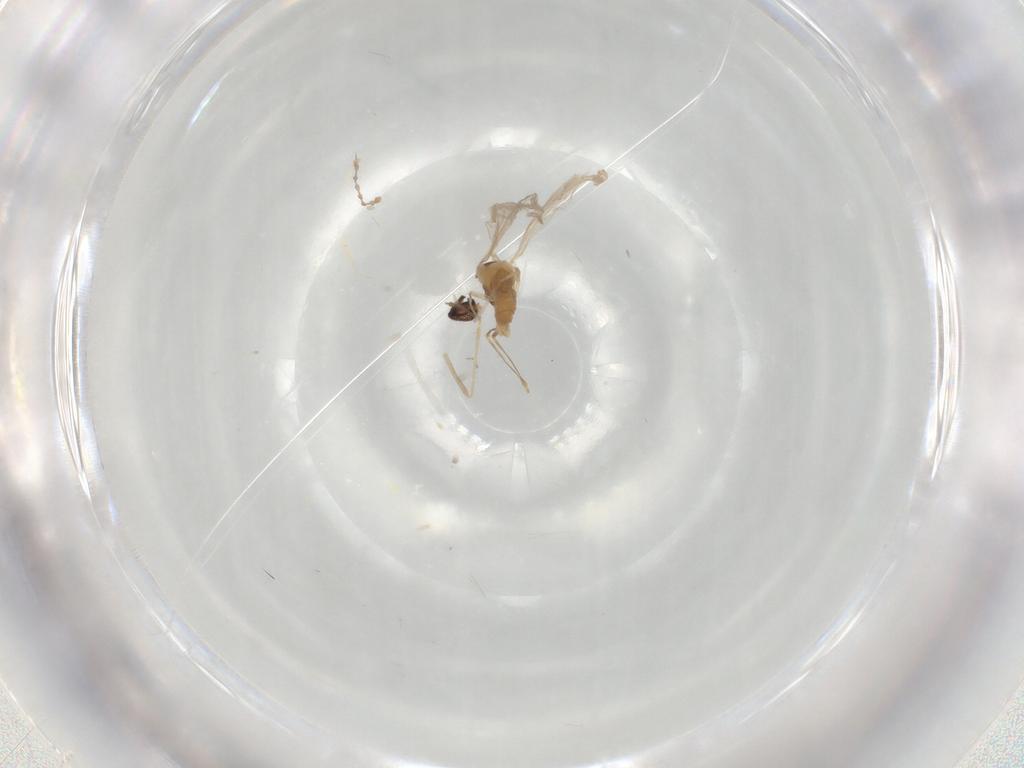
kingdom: Animalia
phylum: Arthropoda
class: Insecta
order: Diptera
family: Cecidomyiidae
